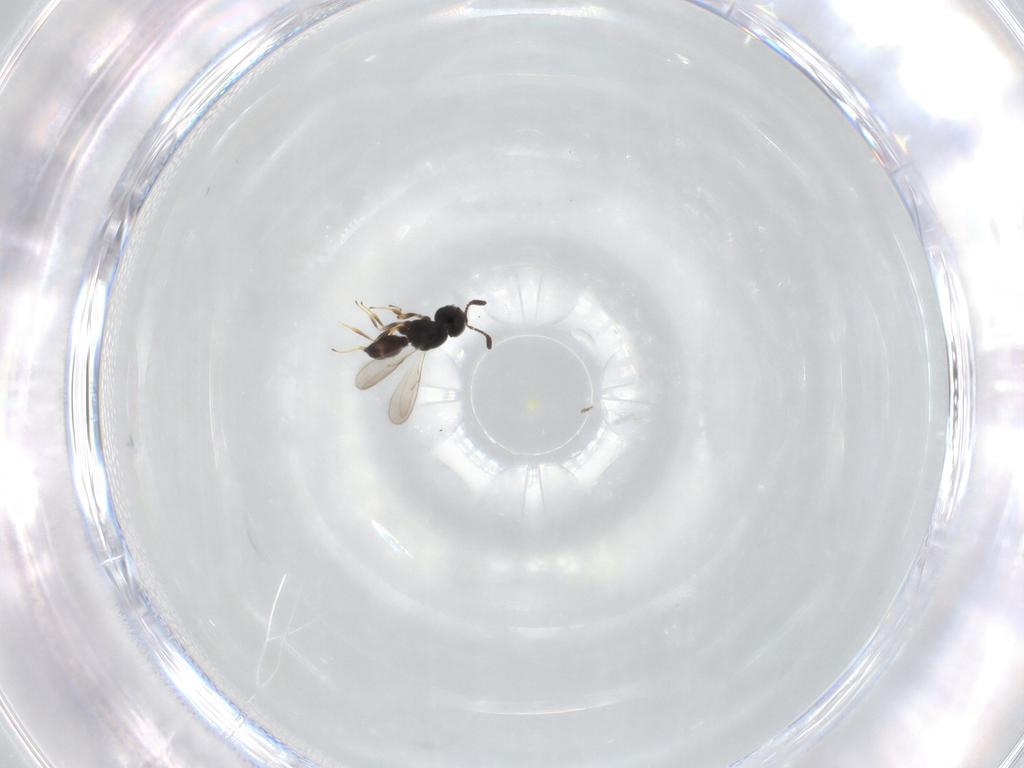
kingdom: Animalia
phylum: Arthropoda
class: Insecta
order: Hymenoptera
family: Scelionidae
